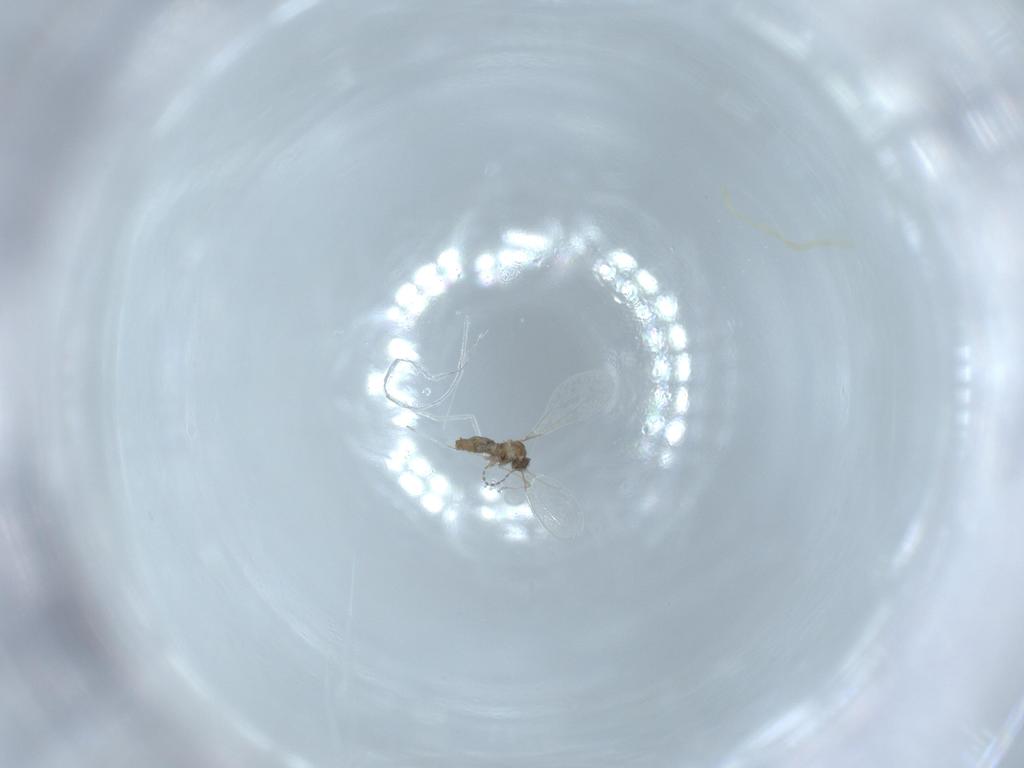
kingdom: Animalia
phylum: Arthropoda
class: Insecta
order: Diptera
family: Cecidomyiidae
